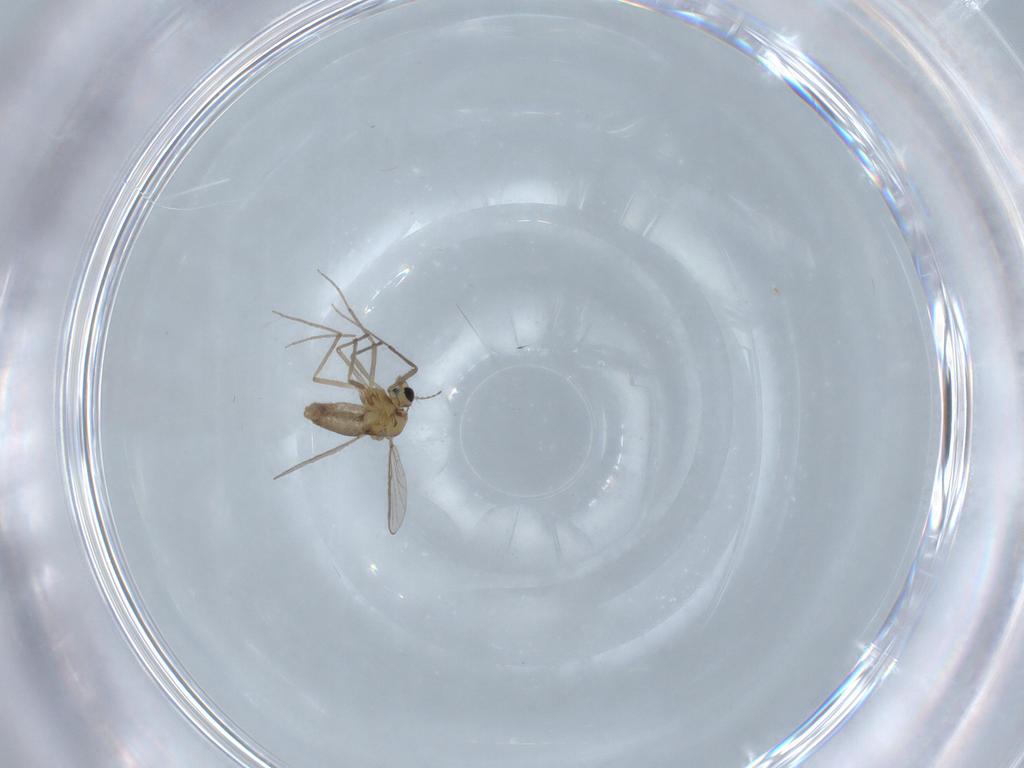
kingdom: Animalia
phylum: Arthropoda
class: Insecta
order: Diptera
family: Chironomidae
